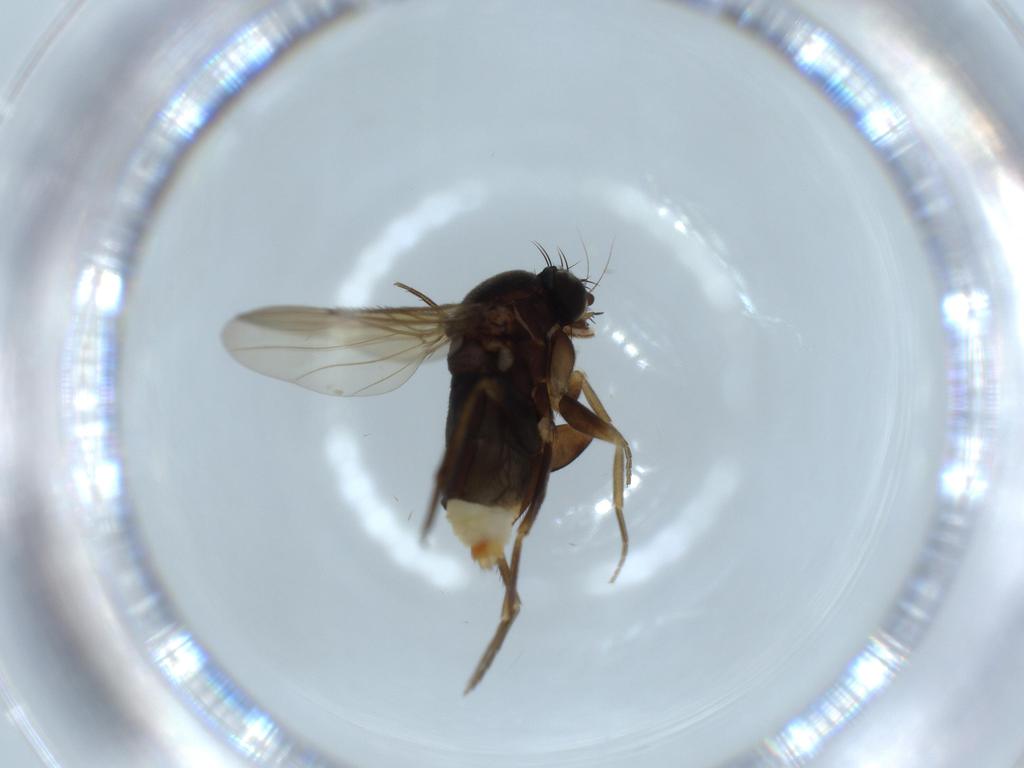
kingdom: Animalia
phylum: Arthropoda
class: Insecta
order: Diptera
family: Phoridae
